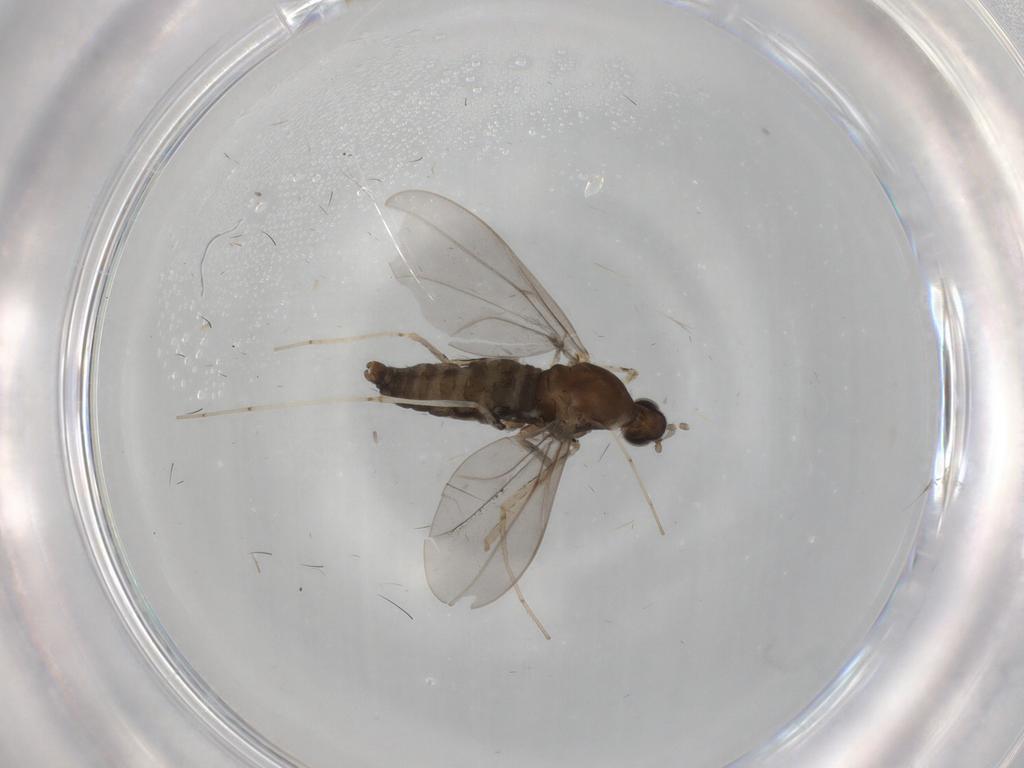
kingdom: Animalia
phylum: Arthropoda
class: Insecta
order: Diptera
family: Cecidomyiidae
